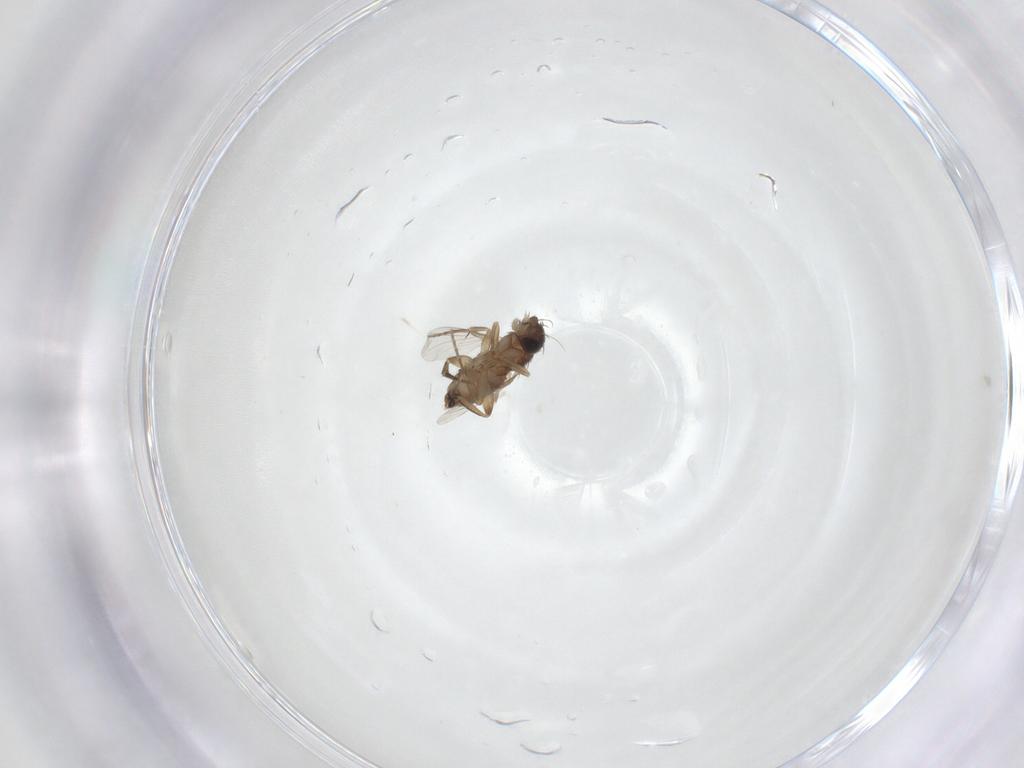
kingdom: Animalia
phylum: Arthropoda
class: Insecta
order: Diptera
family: Phoridae
